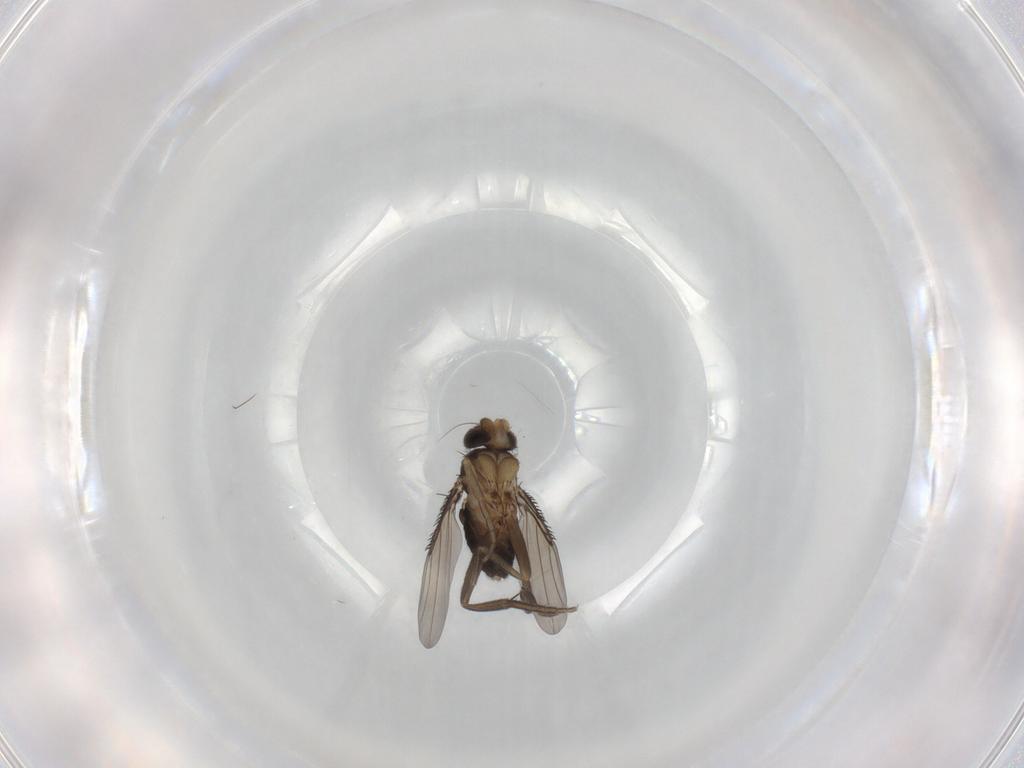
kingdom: Animalia
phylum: Arthropoda
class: Insecta
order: Diptera
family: Phoridae
